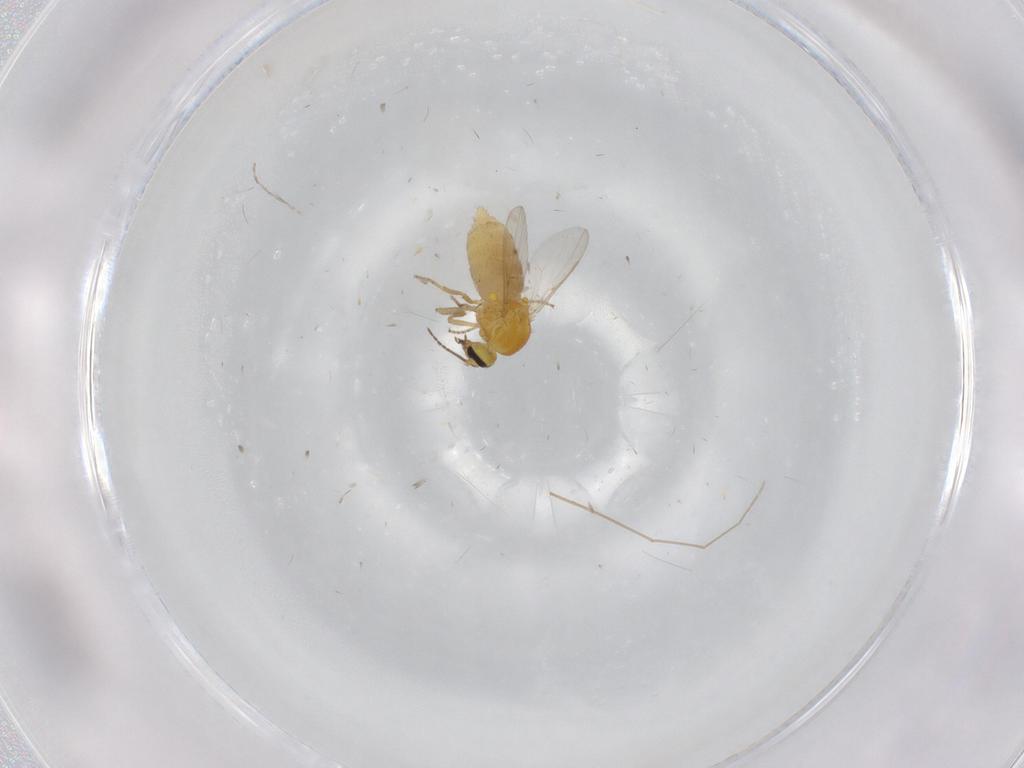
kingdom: Animalia
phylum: Arthropoda
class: Insecta
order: Diptera
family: Ceratopogonidae
